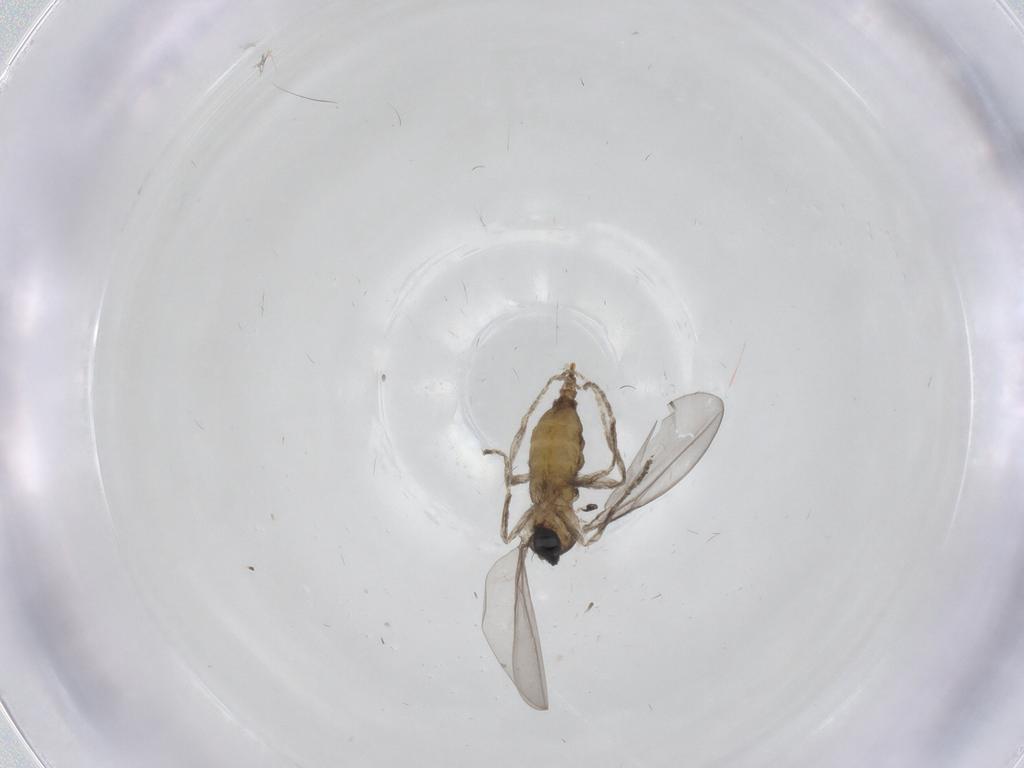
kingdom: Animalia
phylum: Arthropoda
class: Insecta
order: Diptera
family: Cecidomyiidae
